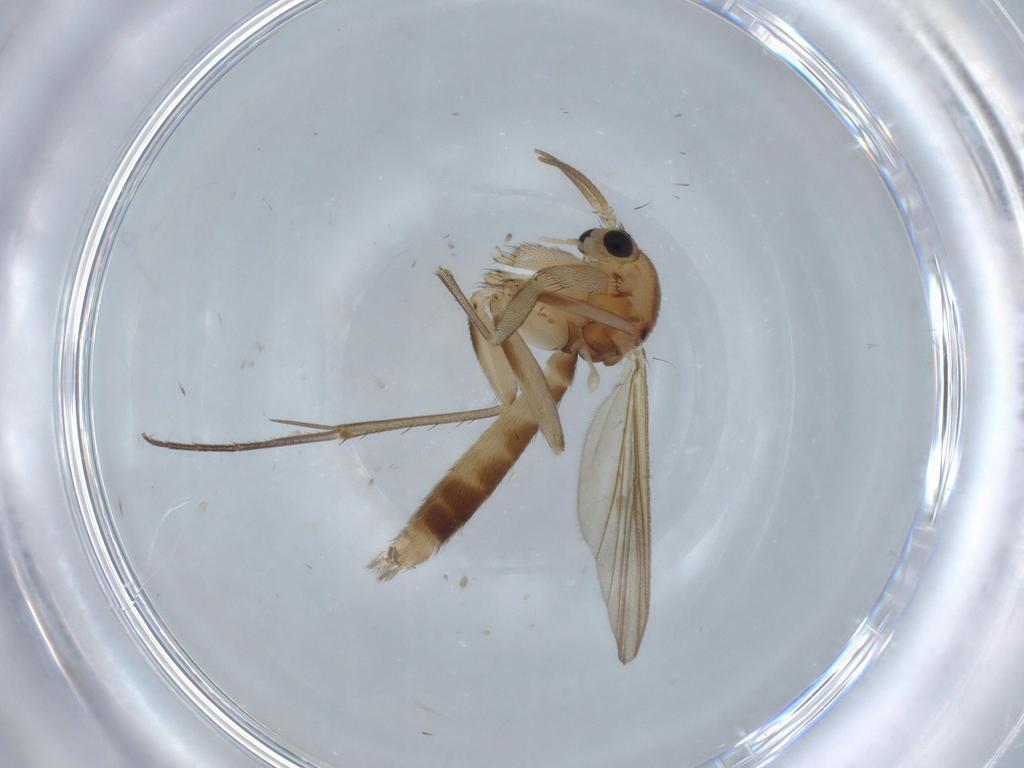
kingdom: Animalia
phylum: Arthropoda
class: Insecta
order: Diptera
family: Mycetophilidae
